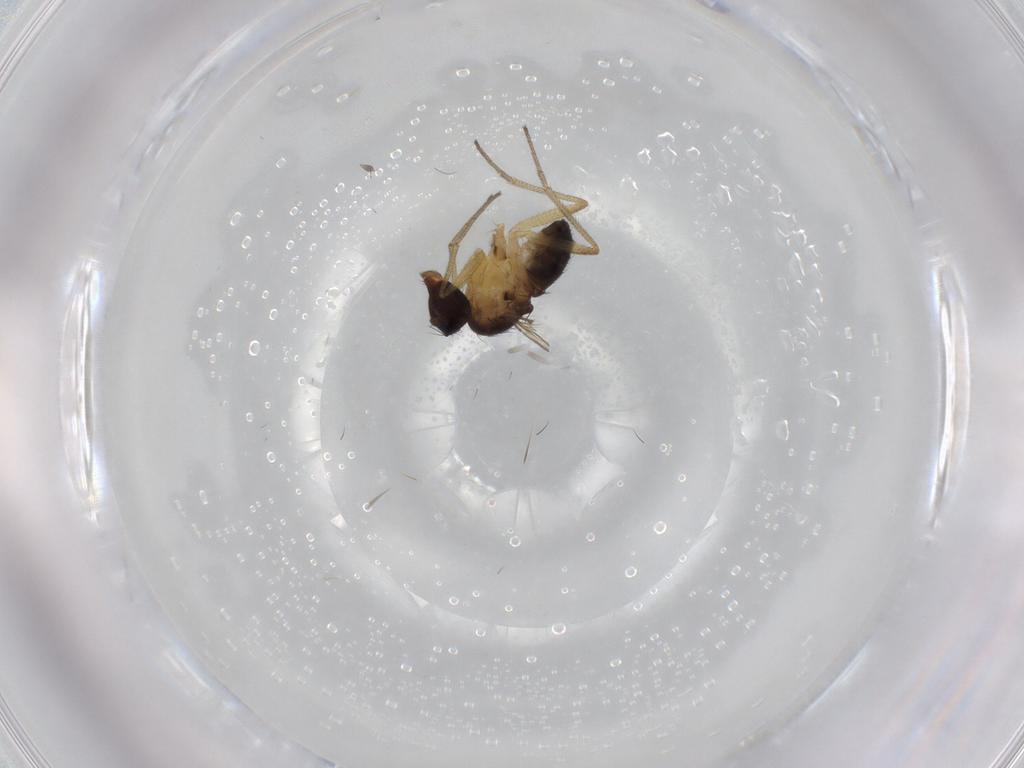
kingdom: Animalia
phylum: Arthropoda
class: Insecta
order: Diptera
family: Dolichopodidae
